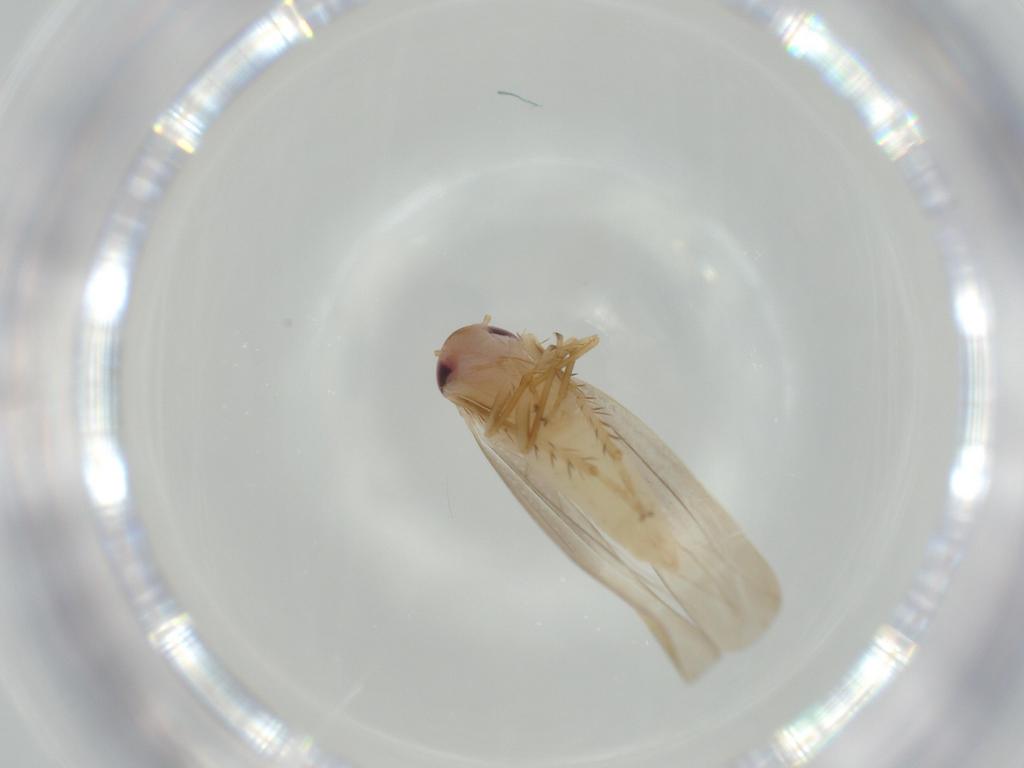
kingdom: Animalia
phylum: Arthropoda
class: Insecta
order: Hemiptera
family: Cicadellidae
